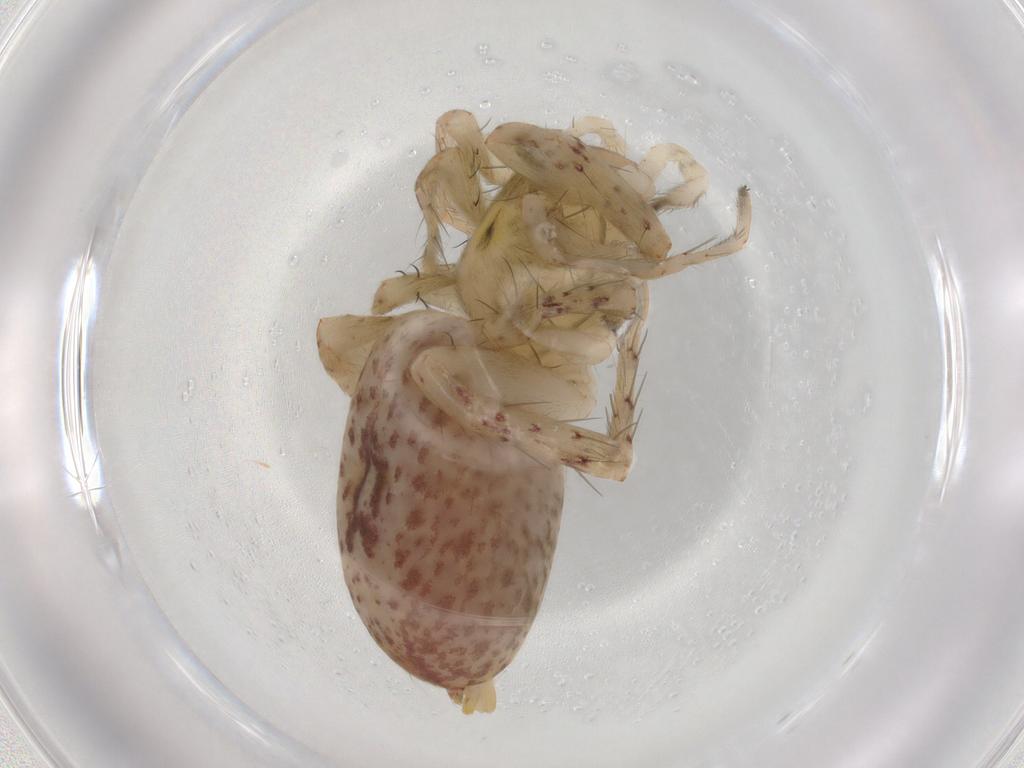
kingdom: Animalia
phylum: Arthropoda
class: Arachnida
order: Araneae
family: Anyphaenidae
